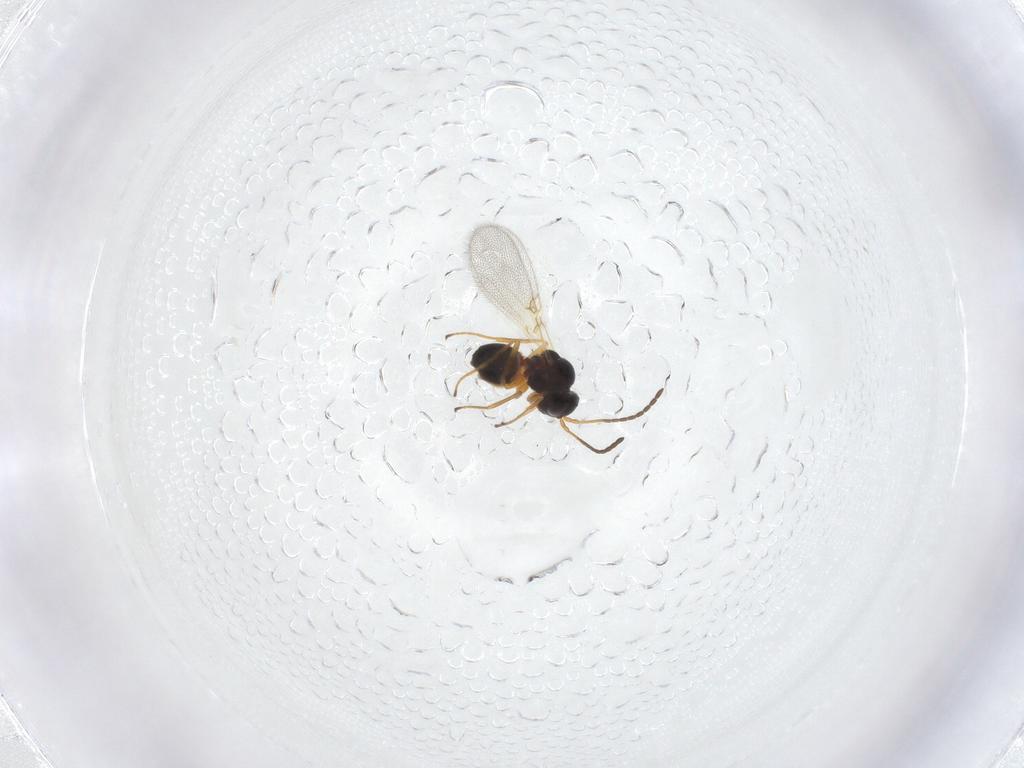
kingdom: Animalia
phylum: Arthropoda
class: Insecta
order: Hymenoptera
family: Figitidae
